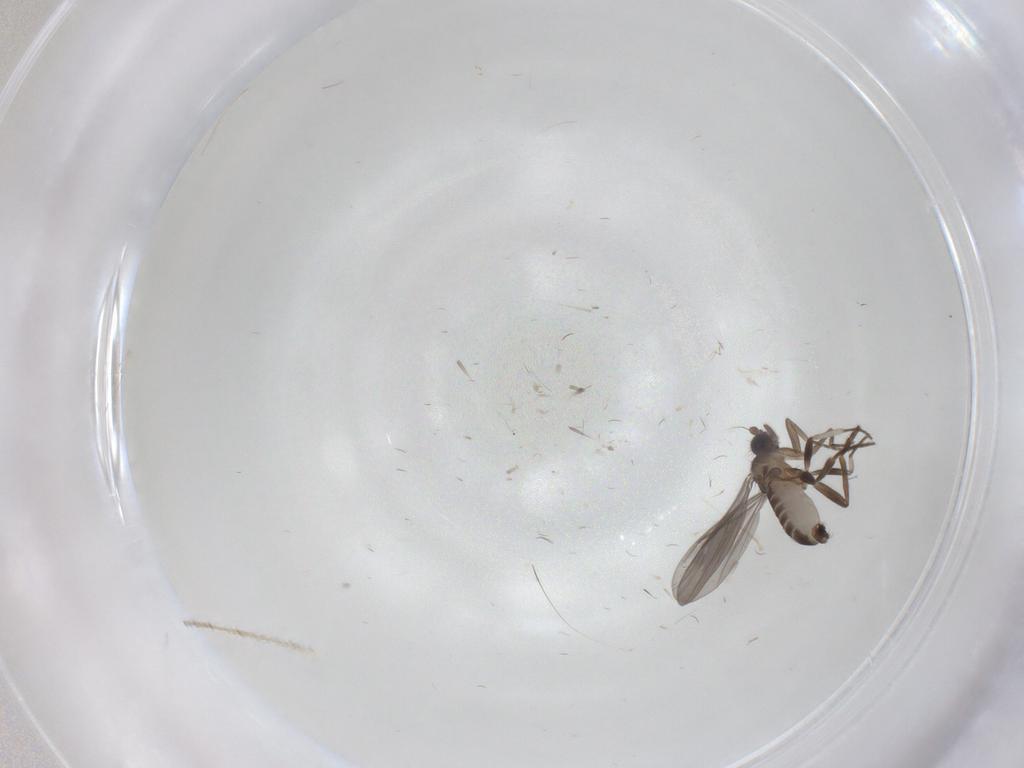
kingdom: Animalia
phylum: Arthropoda
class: Insecta
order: Diptera
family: Phoridae
